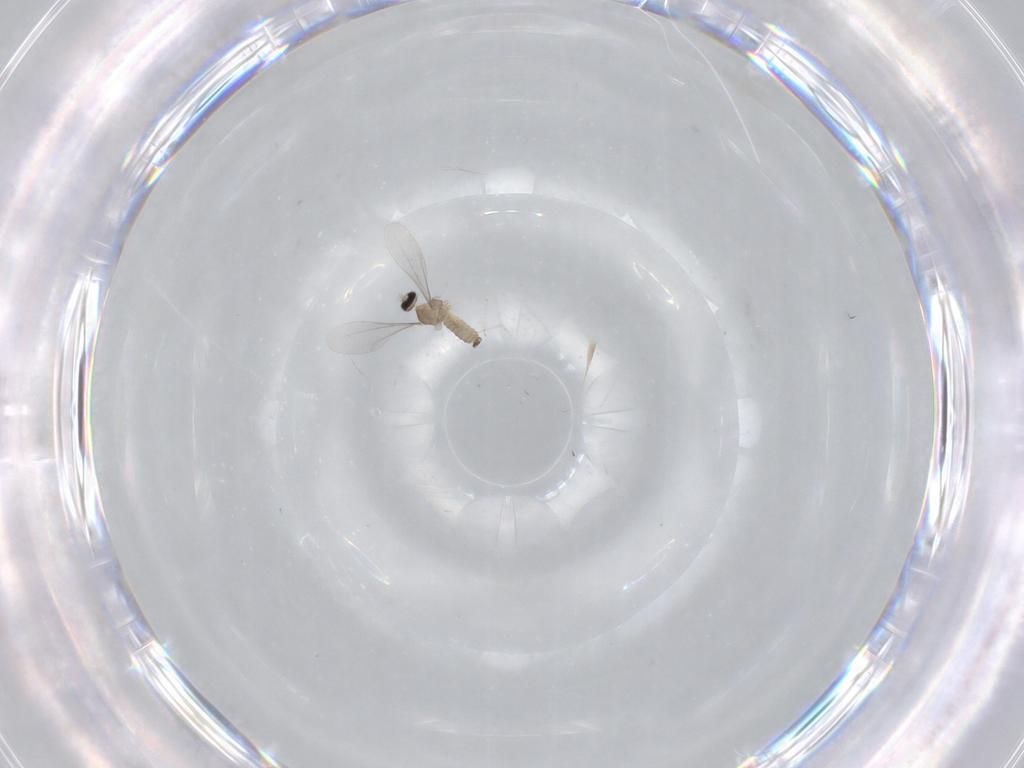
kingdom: Animalia
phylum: Arthropoda
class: Insecta
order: Diptera
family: Cecidomyiidae
